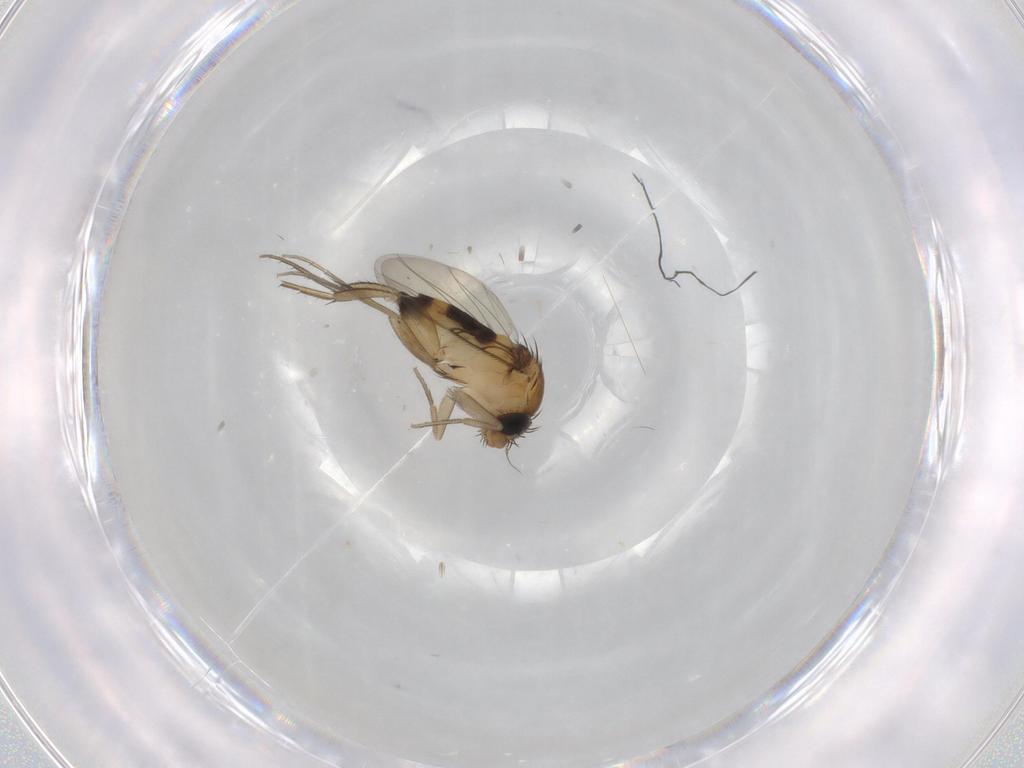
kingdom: Animalia
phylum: Arthropoda
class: Insecta
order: Diptera
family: Phoridae
